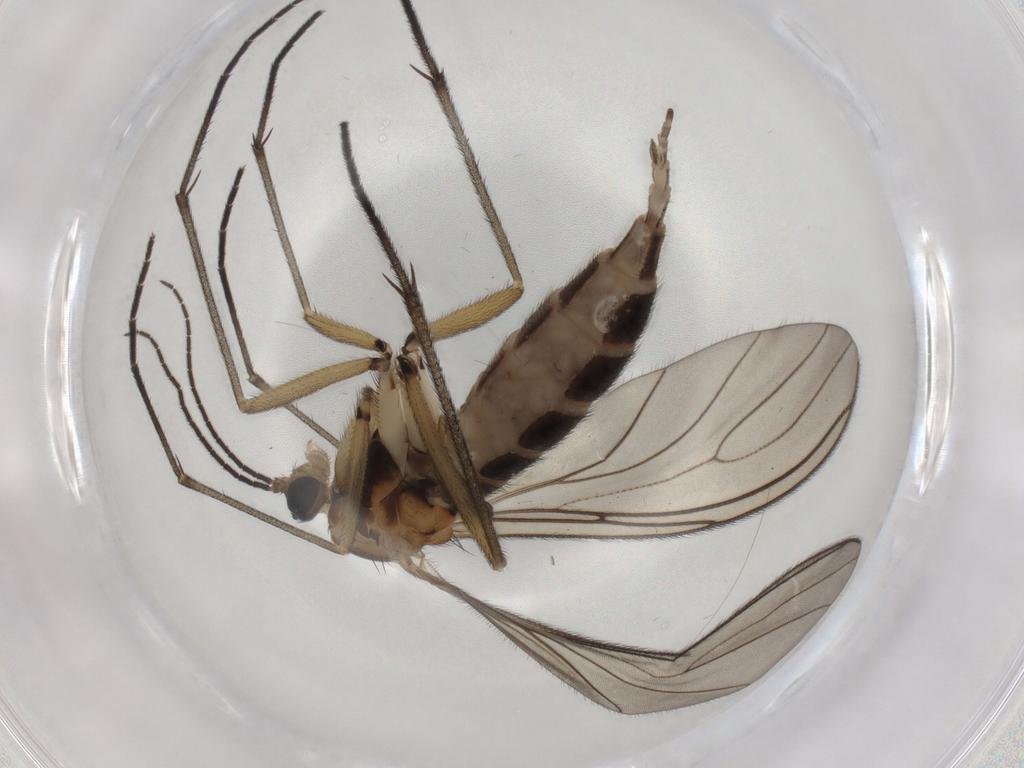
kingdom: Animalia
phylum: Arthropoda
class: Insecta
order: Diptera
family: Sciaridae
